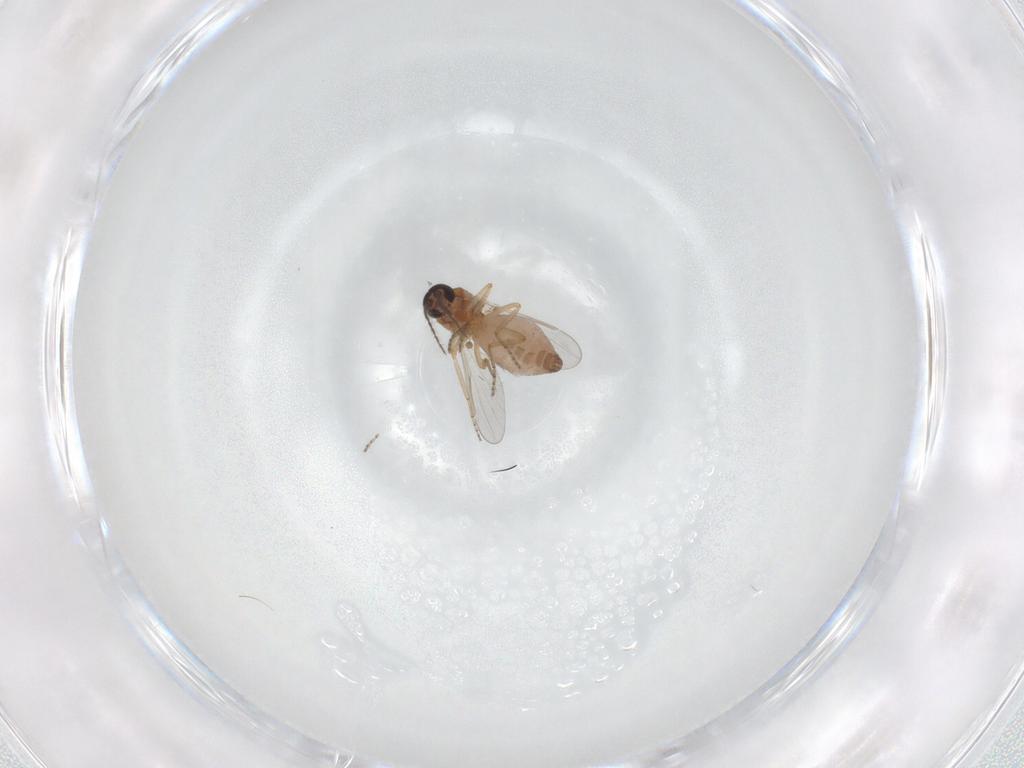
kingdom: Animalia
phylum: Arthropoda
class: Insecta
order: Diptera
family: Ceratopogonidae
